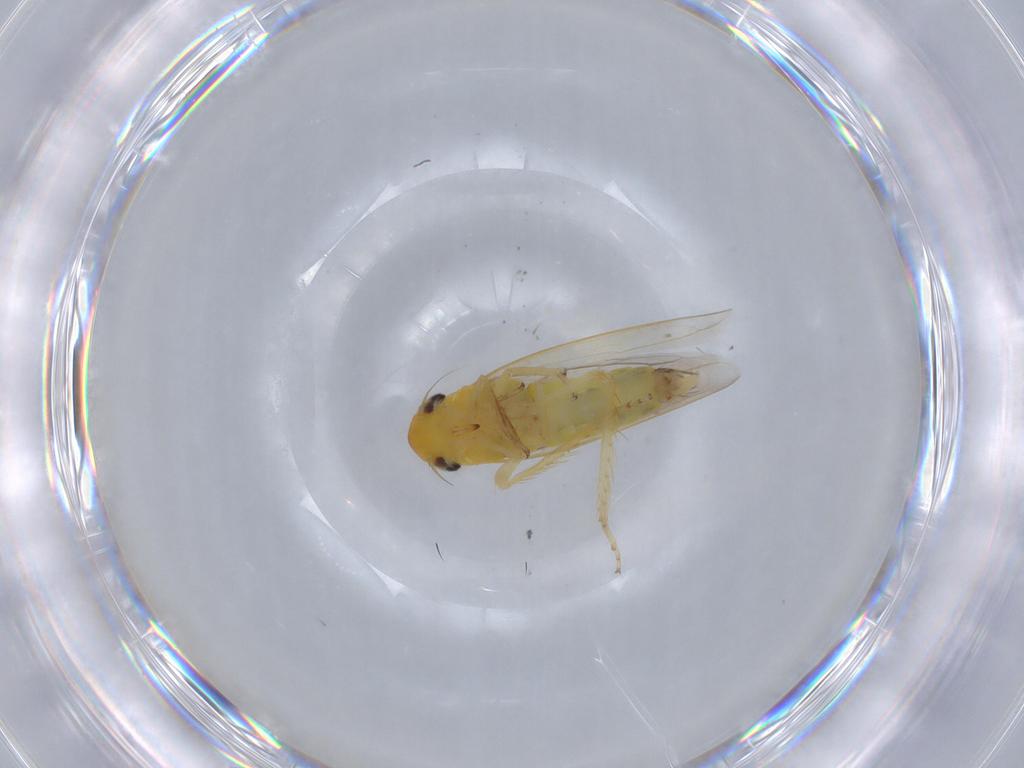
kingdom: Animalia
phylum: Arthropoda
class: Insecta
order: Hemiptera
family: Cicadellidae
